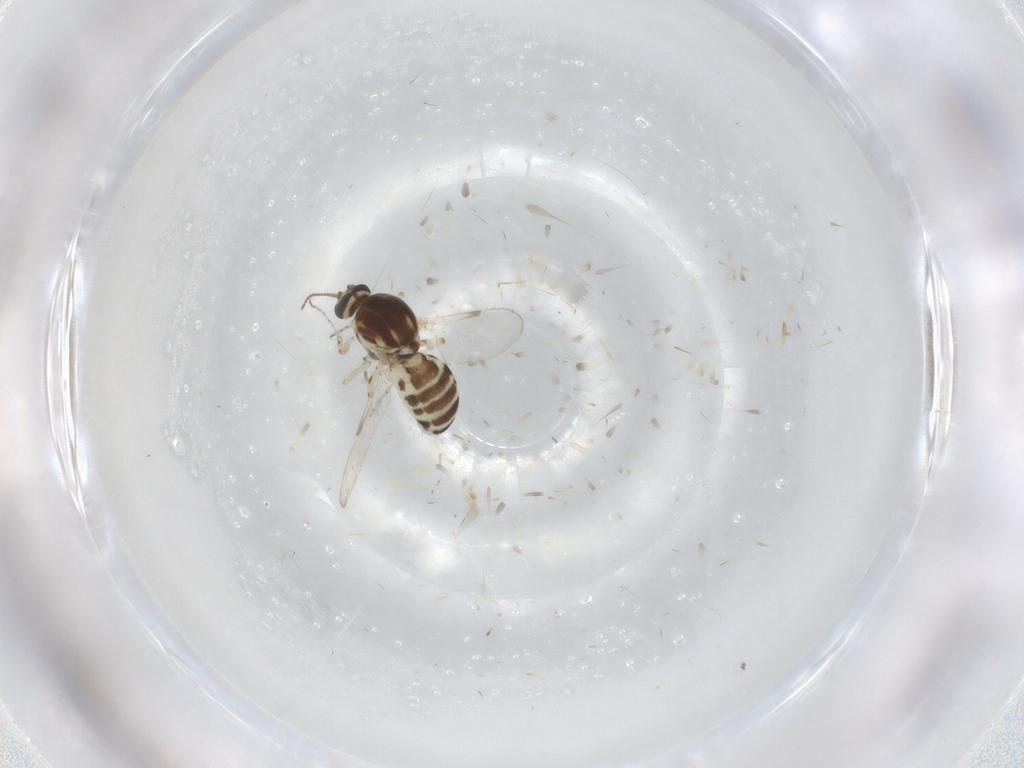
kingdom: Animalia
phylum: Arthropoda
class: Insecta
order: Diptera
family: Ceratopogonidae
